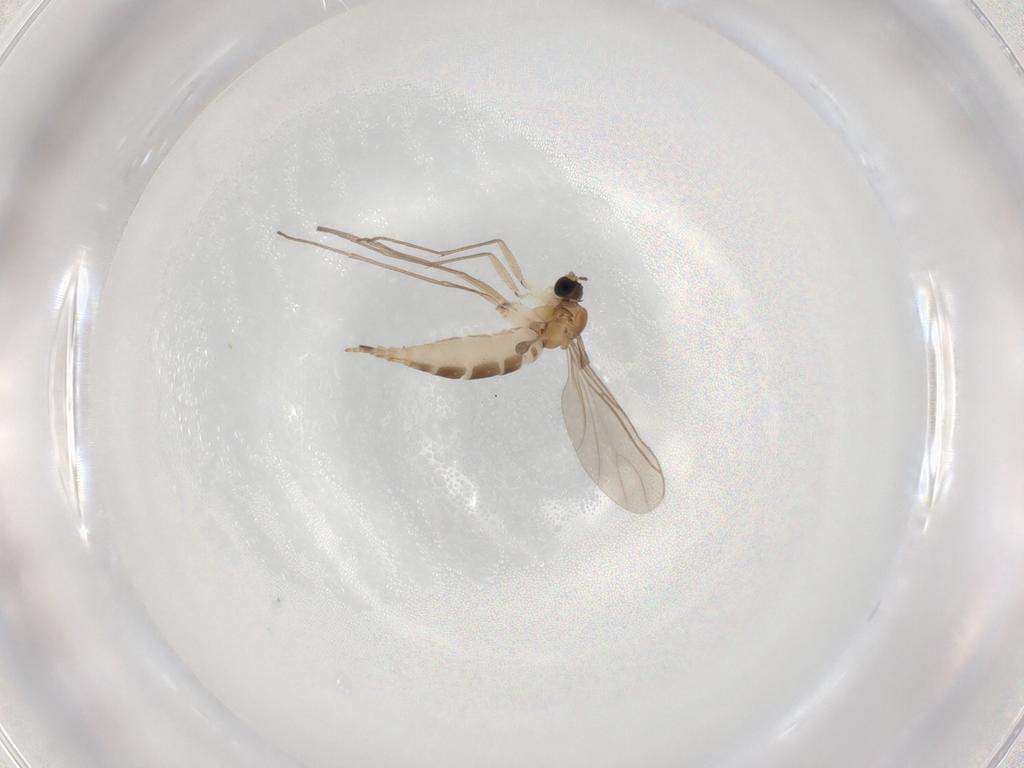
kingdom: Animalia
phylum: Arthropoda
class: Insecta
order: Diptera
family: Sciaridae
